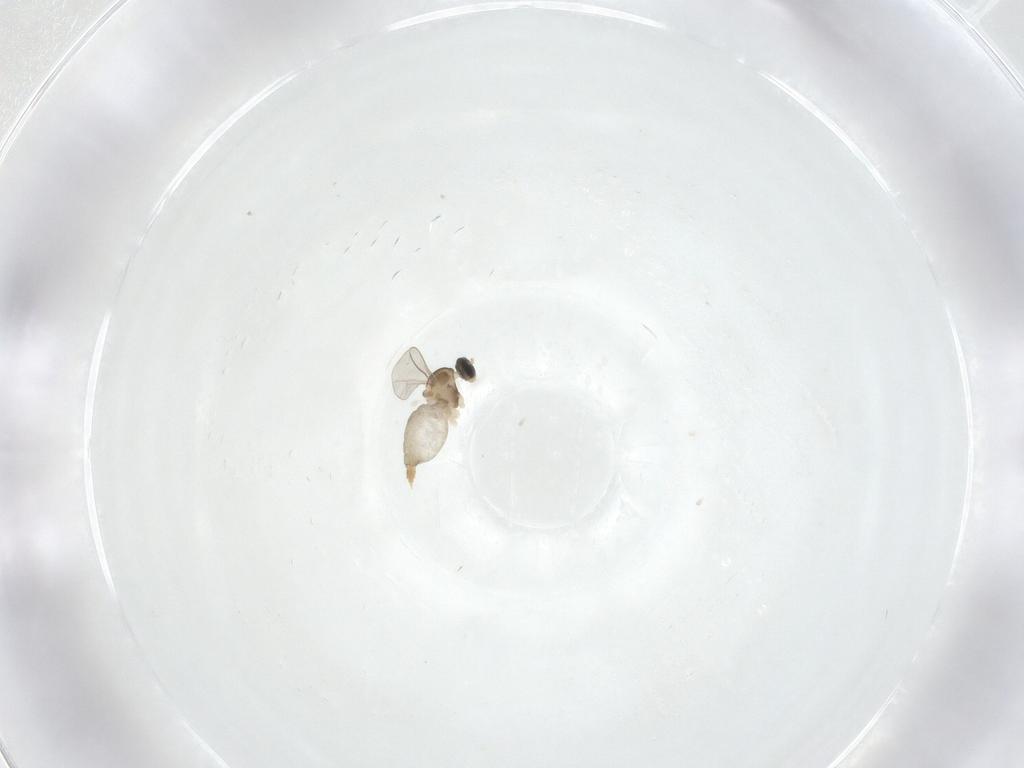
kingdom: Animalia
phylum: Arthropoda
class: Insecta
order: Diptera
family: Cecidomyiidae
